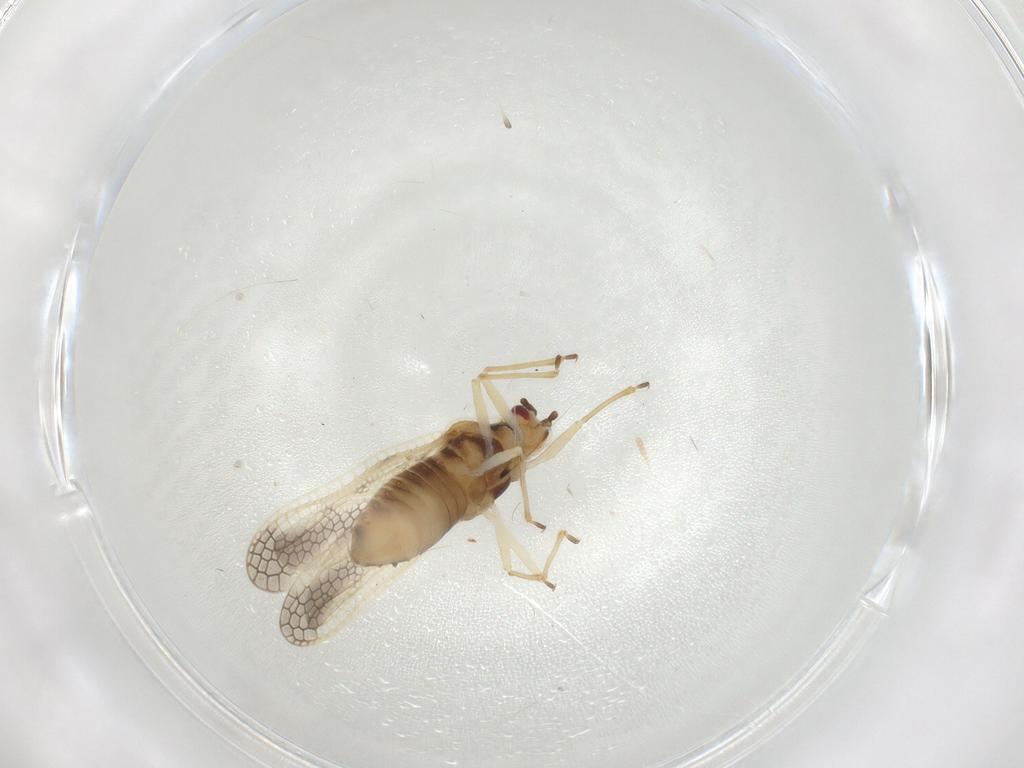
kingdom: Animalia
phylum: Arthropoda
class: Insecta
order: Hemiptera
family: Tingidae
